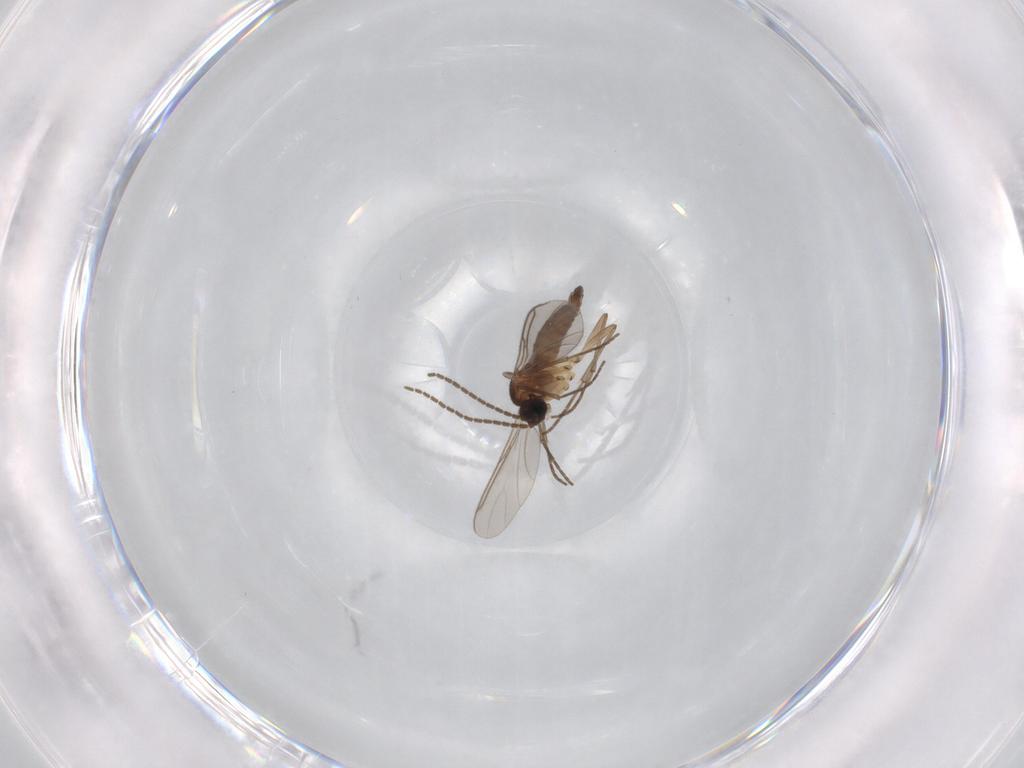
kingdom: Animalia
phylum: Arthropoda
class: Insecta
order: Diptera
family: Sciaridae
